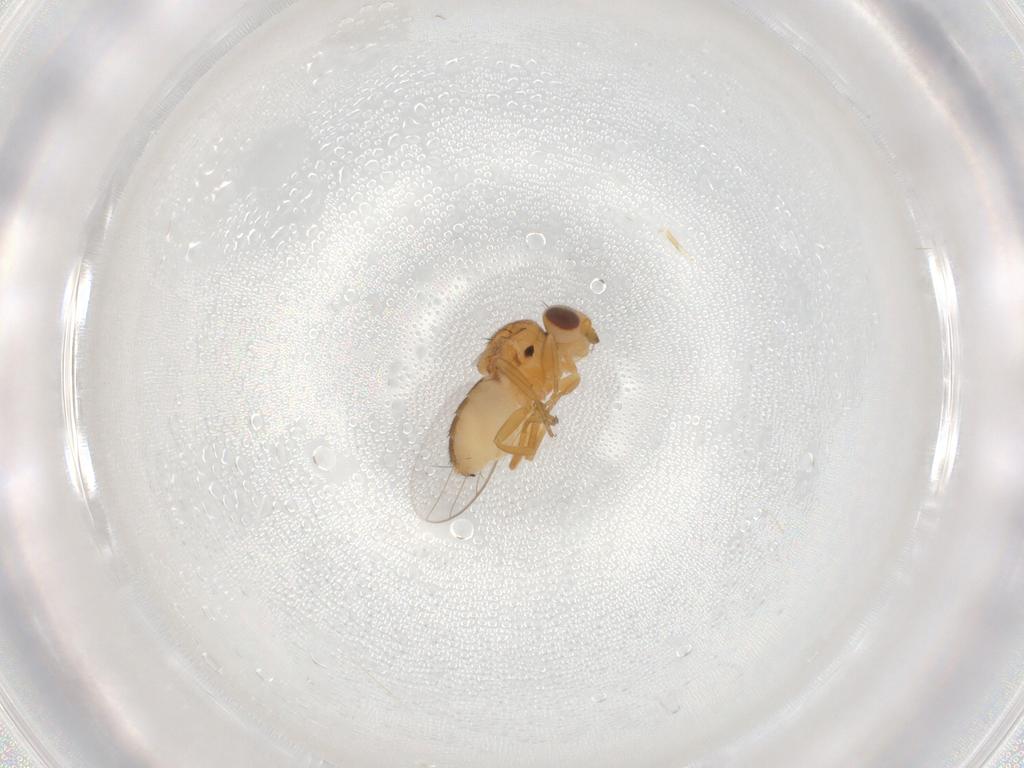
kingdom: Animalia
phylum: Arthropoda
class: Insecta
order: Diptera
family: Chloropidae
